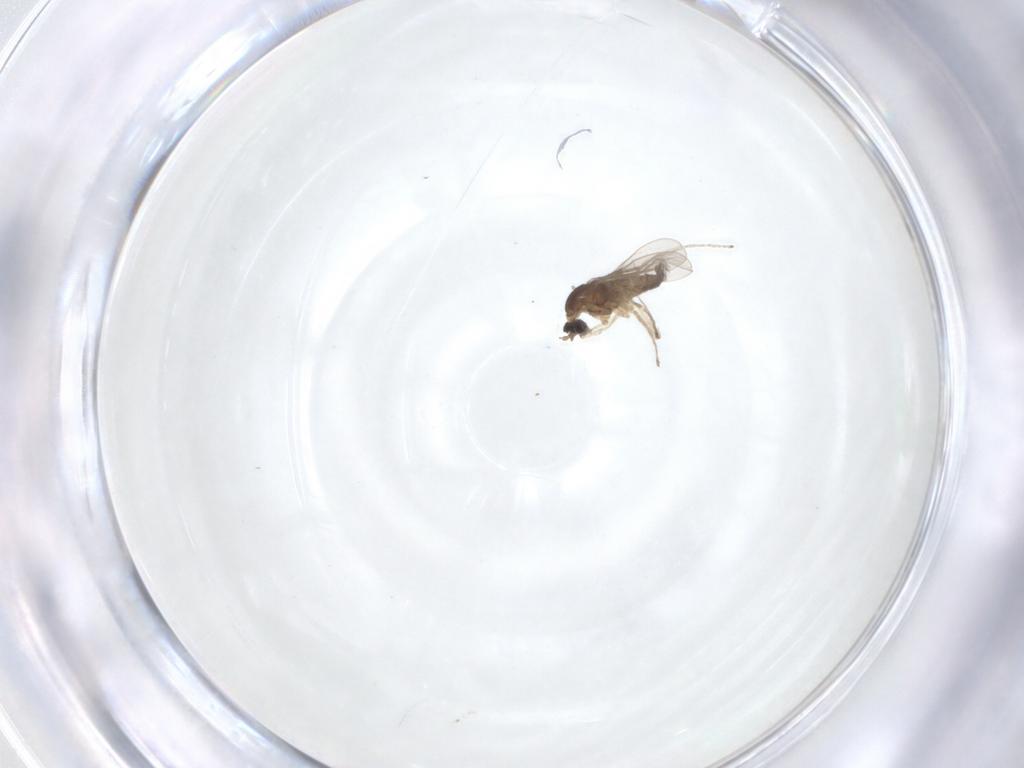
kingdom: Animalia
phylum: Arthropoda
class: Insecta
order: Diptera
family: Cecidomyiidae
